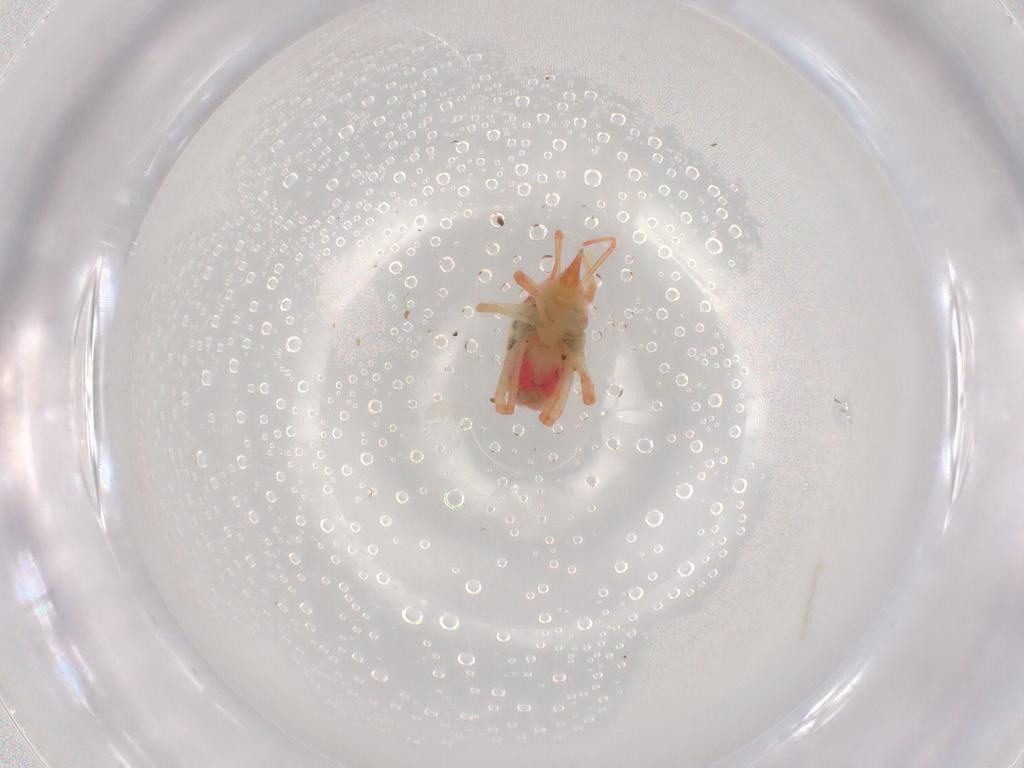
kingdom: Animalia
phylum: Arthropoda
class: Arachnida
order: Trombidiformes
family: Bdellidae
